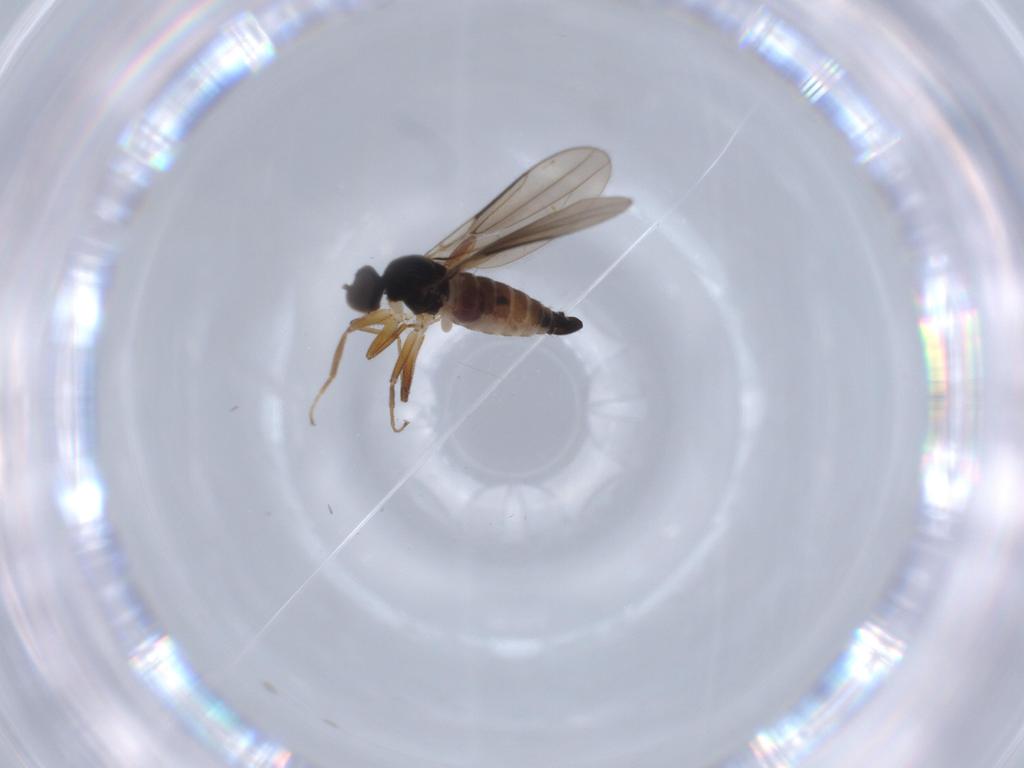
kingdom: Animalia
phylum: Arthropoda
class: Insecta
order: Diptera
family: Hybotidae
